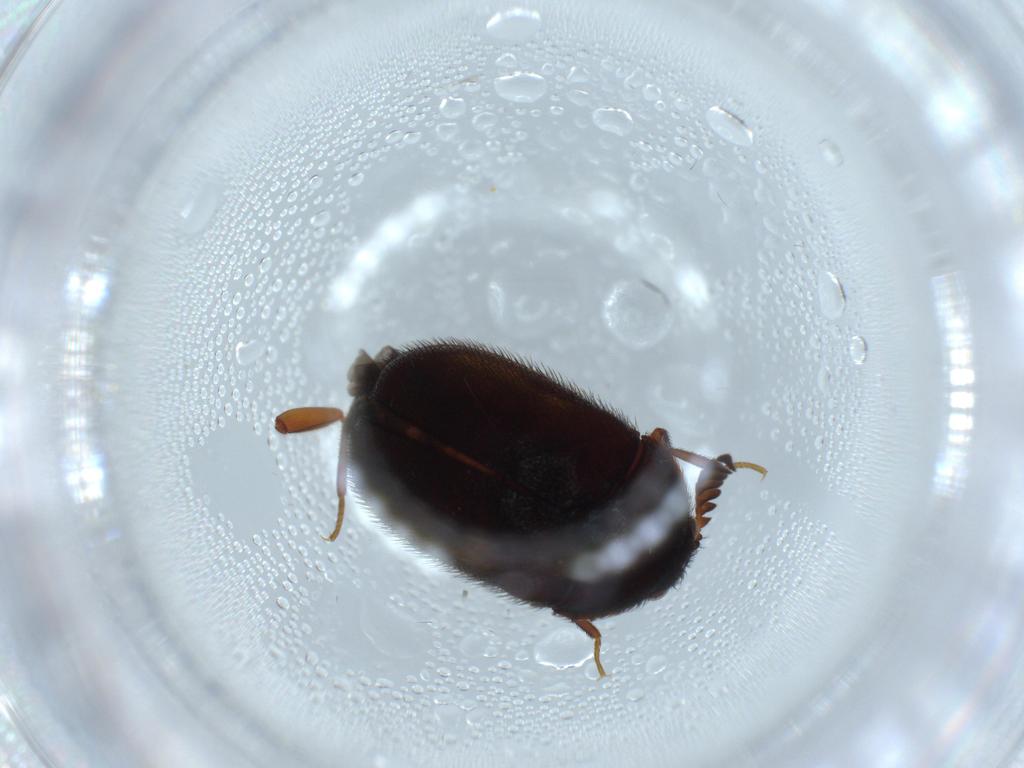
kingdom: Animalia
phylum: Arthropoda
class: Insecta
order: Coleoptera
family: Dermestidae
